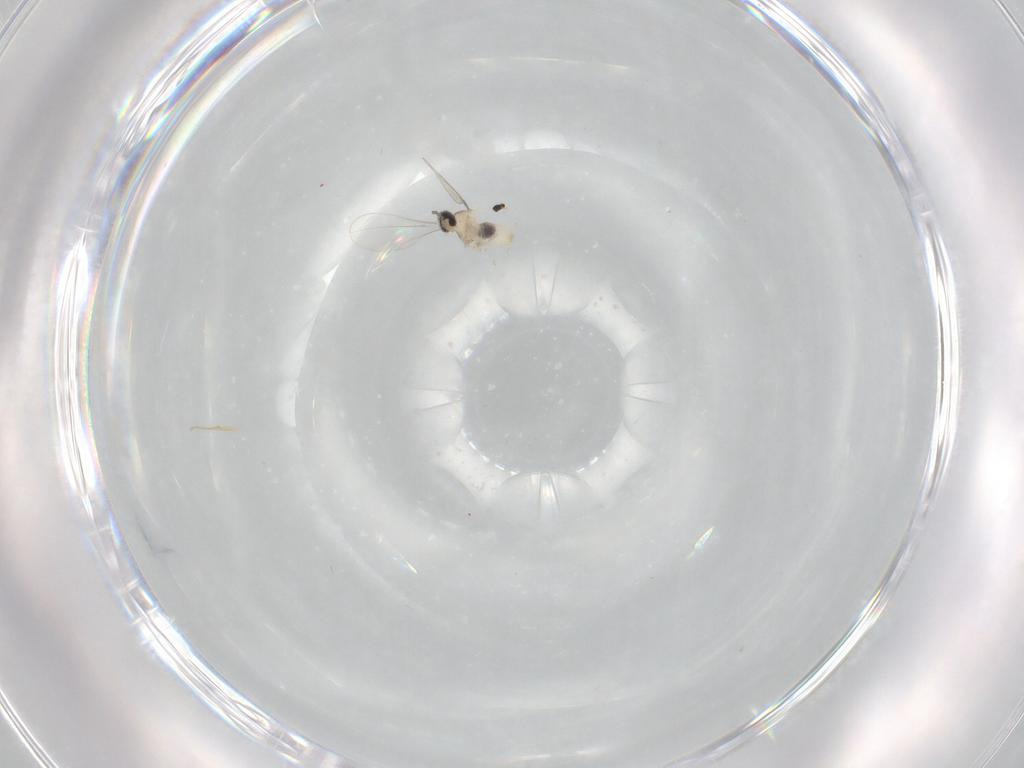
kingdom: Animalia
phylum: Arthropoda
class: Insecta
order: Diptera
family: Cecidomyiidae
